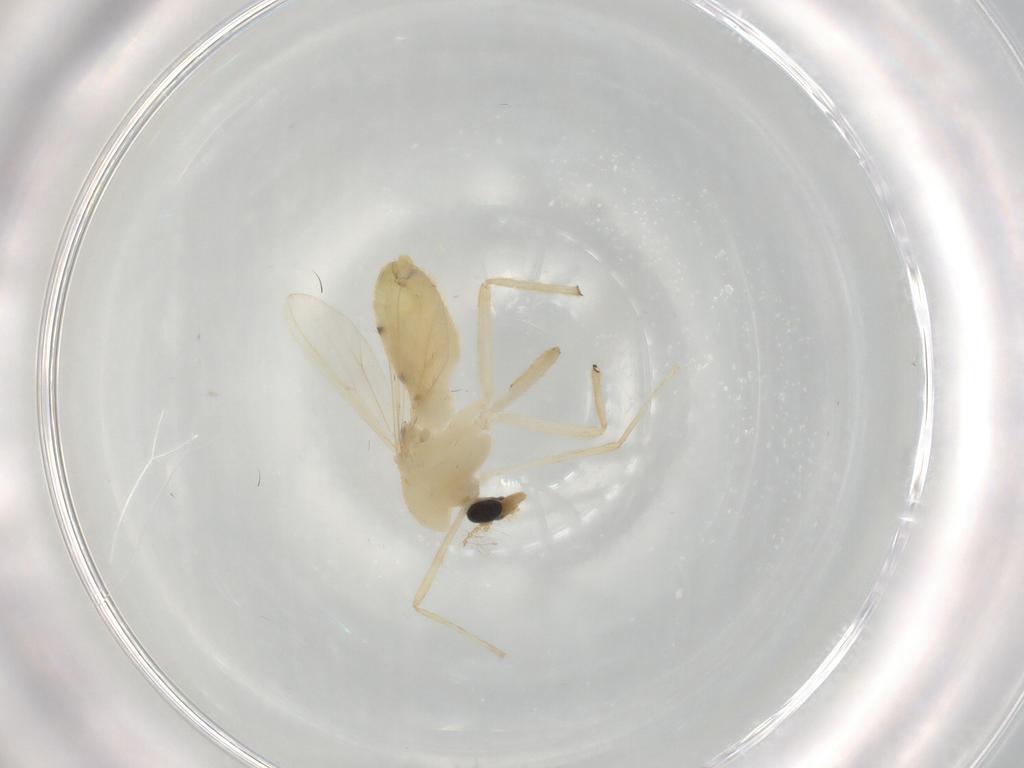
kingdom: Animalia
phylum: Arthropoda
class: Insecta
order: Diptera
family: Chironomidae
